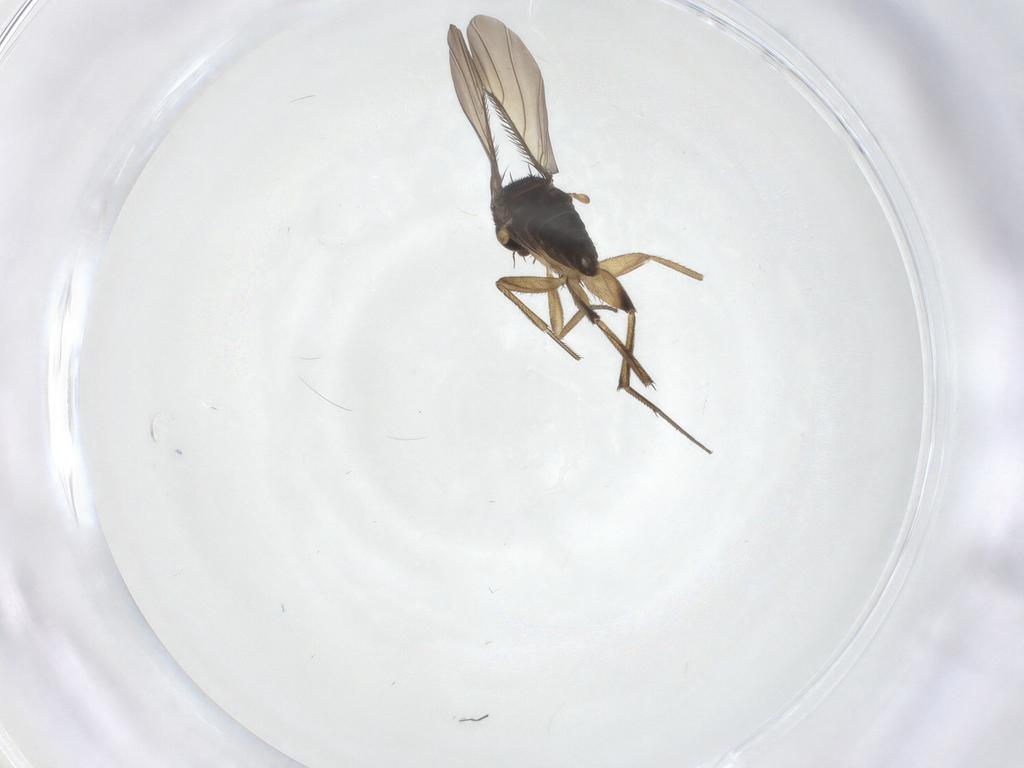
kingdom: Animalia
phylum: Arthropoda
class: Insecta
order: Diptera
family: Phoridae
